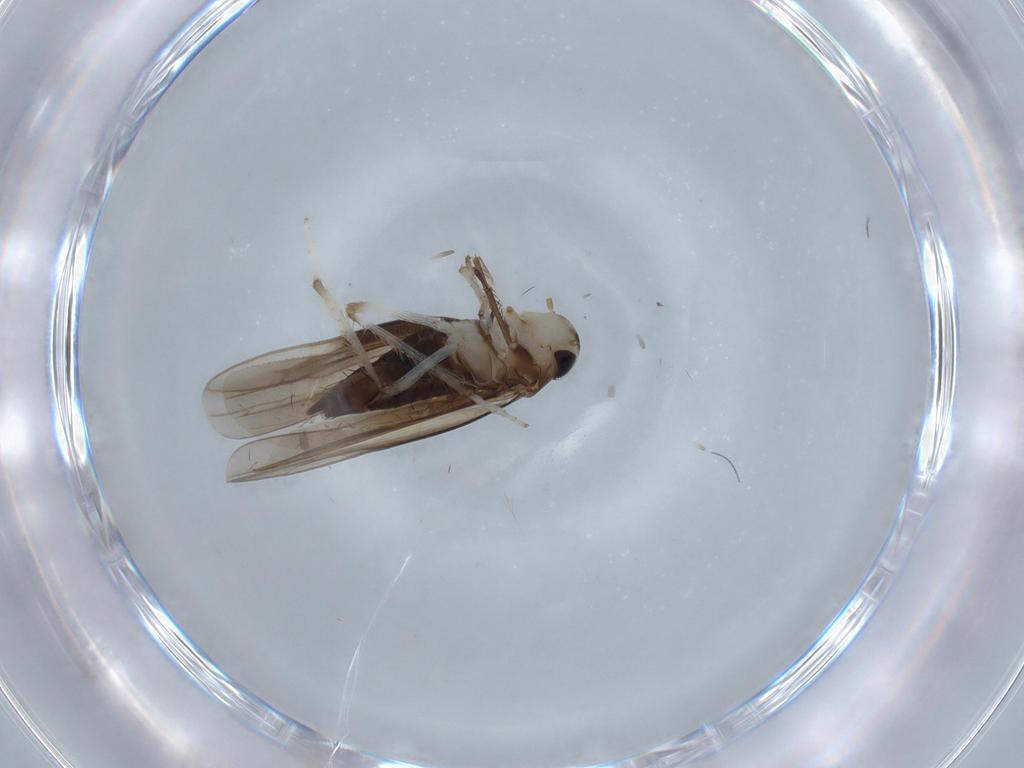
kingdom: Animalia
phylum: Arthropoda
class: Insecta
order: Hemiptera
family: Cicadellidae
